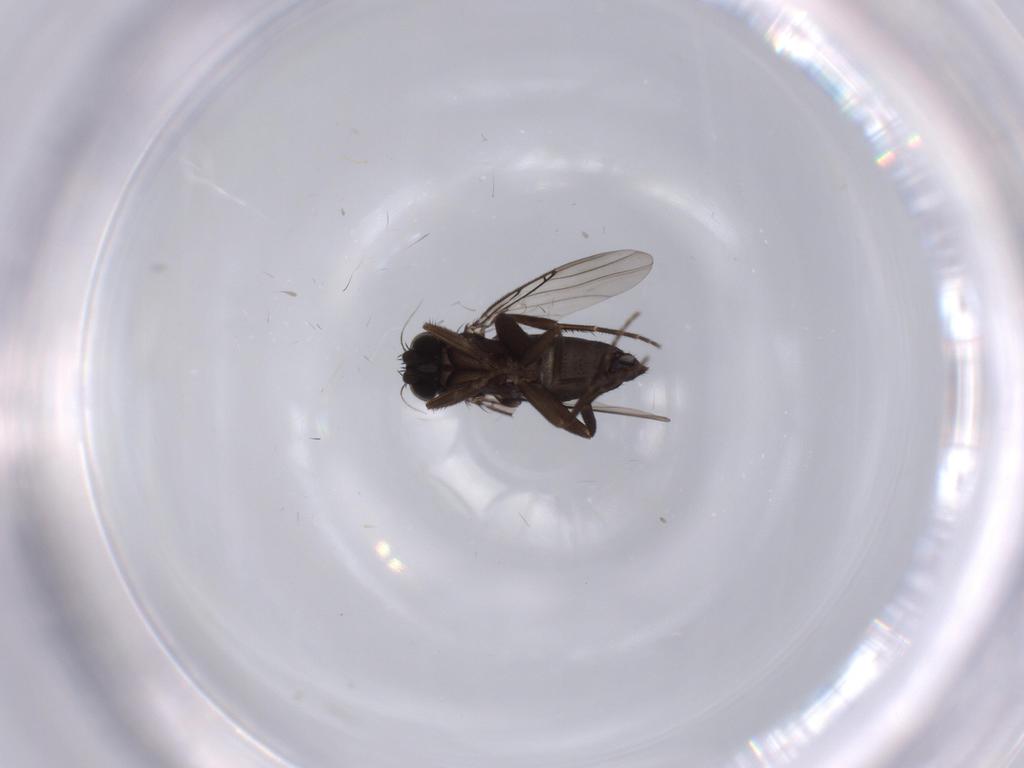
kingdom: Animalia
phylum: Arthropoda
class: Insecta
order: Diptera
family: Phoridae
